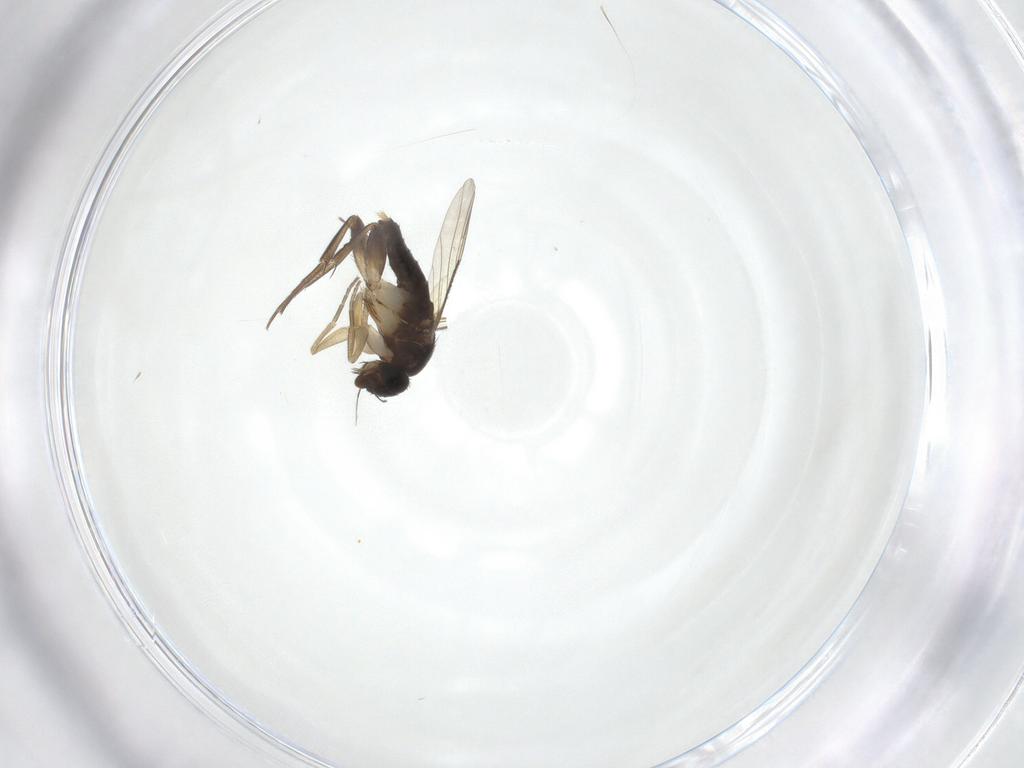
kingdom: Animalia
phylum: Arthropoda
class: Insecta
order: Diptera
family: Phoridae
